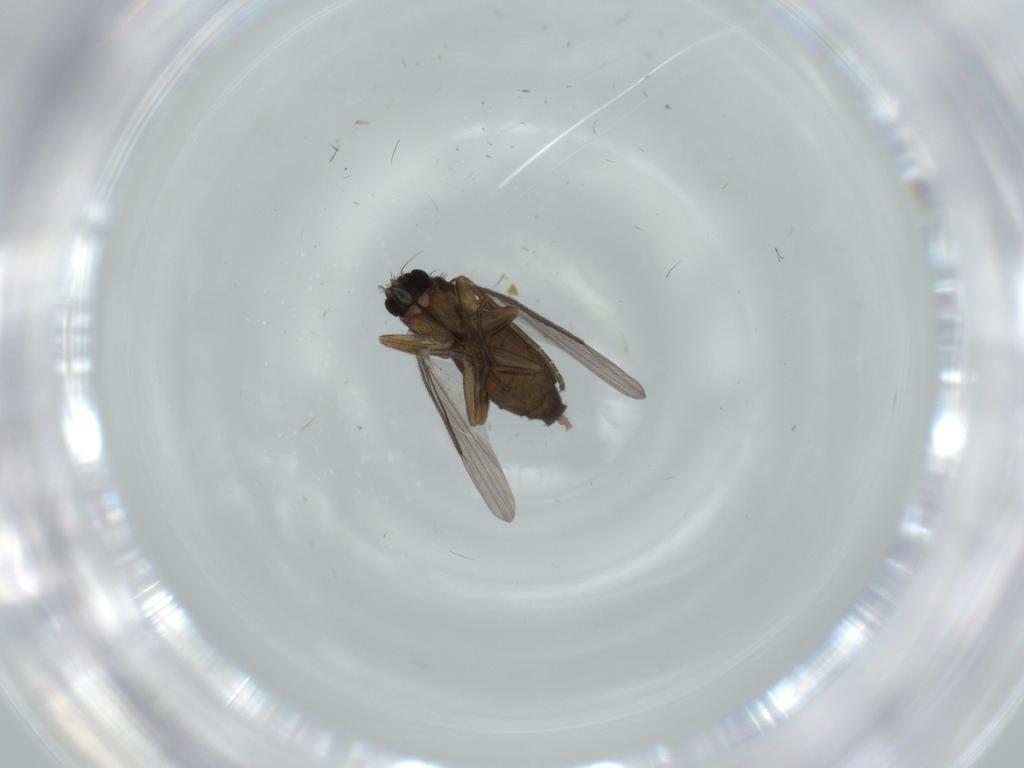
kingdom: Animalia
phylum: Arthropoda
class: Insecta
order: Diptera
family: Phoridae
